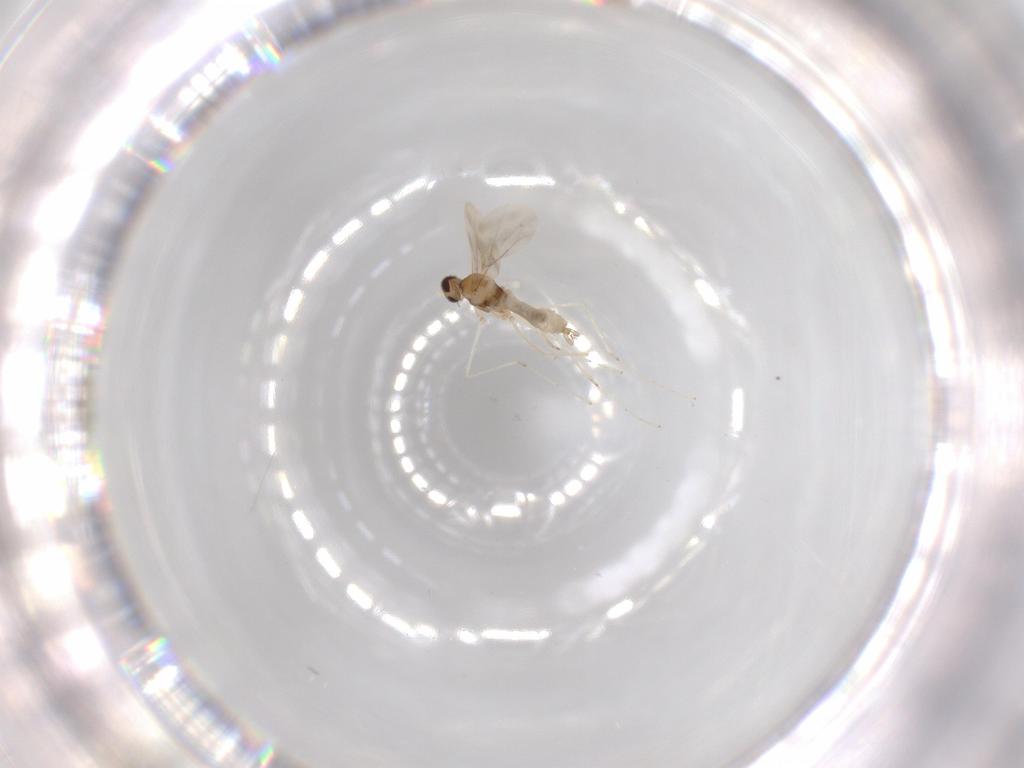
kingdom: Animalia
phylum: Arthropoda
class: Insecta
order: Diptera
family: Cecidomyiidae
